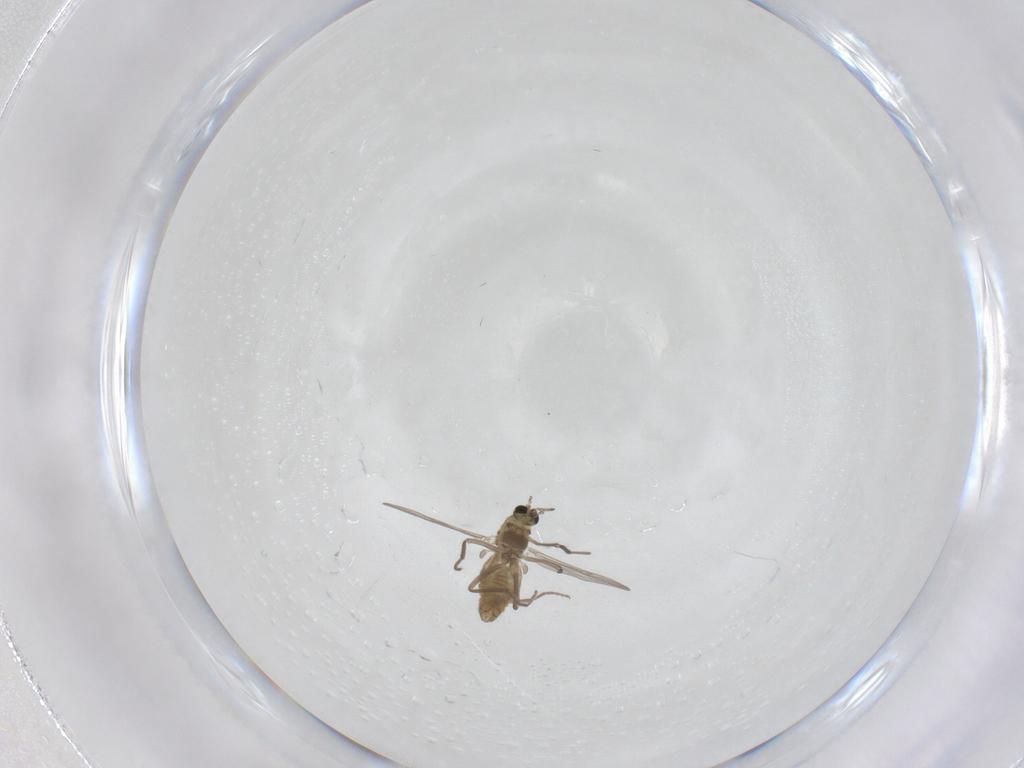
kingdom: Animalia
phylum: Arthropoda
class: Insecta
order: Diptera
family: Chironomidae
